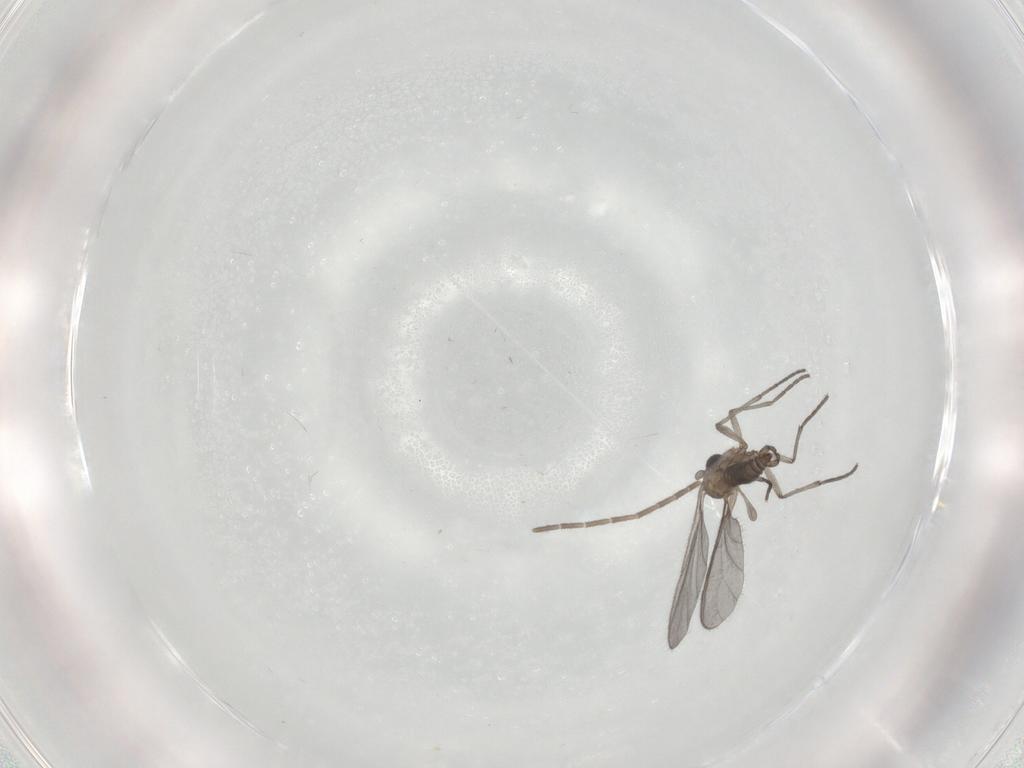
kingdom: Animalia
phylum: Arthropoda
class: Insecta
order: Diptera
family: Sciaridae
